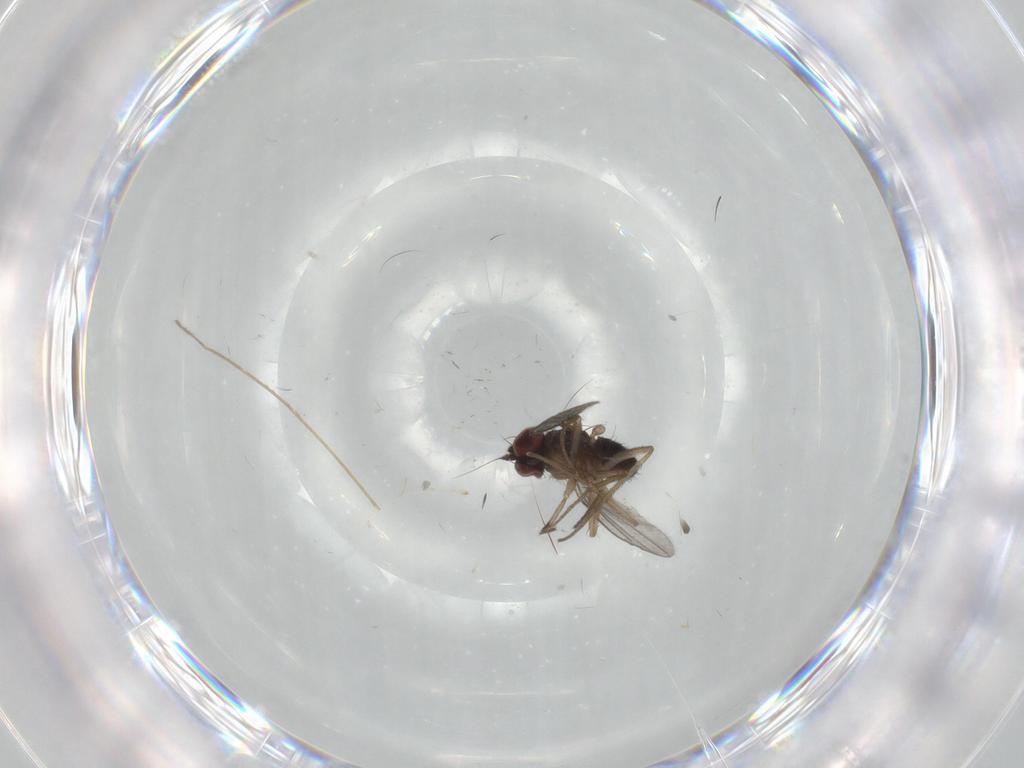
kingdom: Animalia
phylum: Arthropoda
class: Insecta
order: Diptera
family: Dolichopodidae
